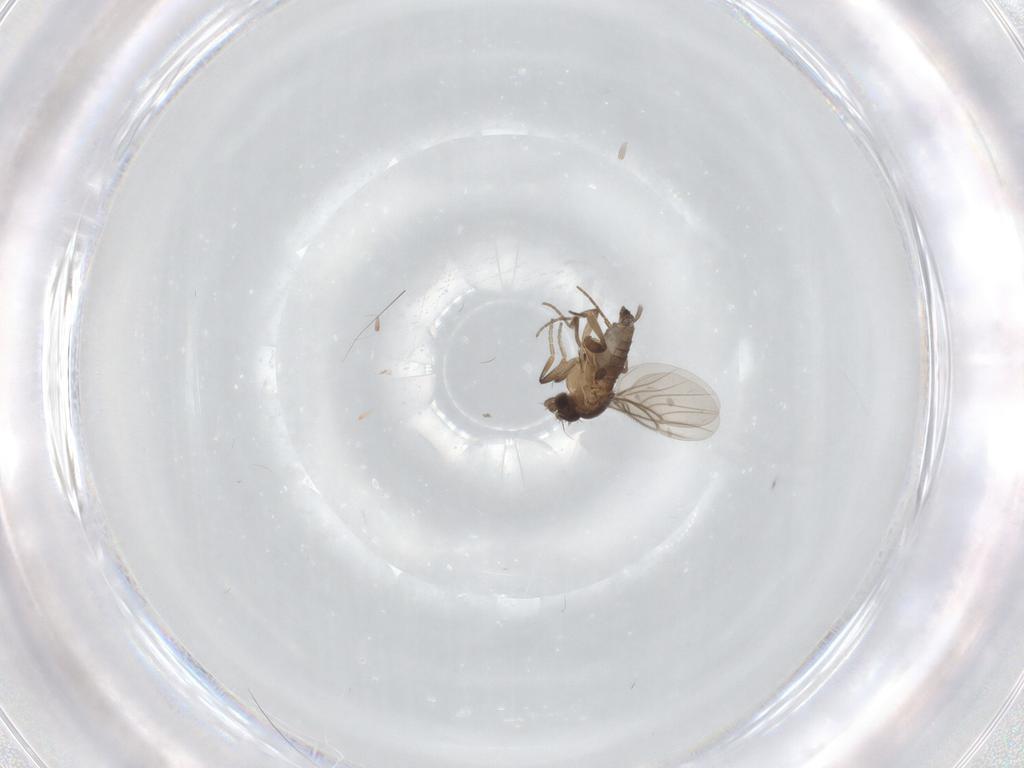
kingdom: Animalia
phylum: Arthropoda
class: Insecta
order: Diptera
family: Phoridae
